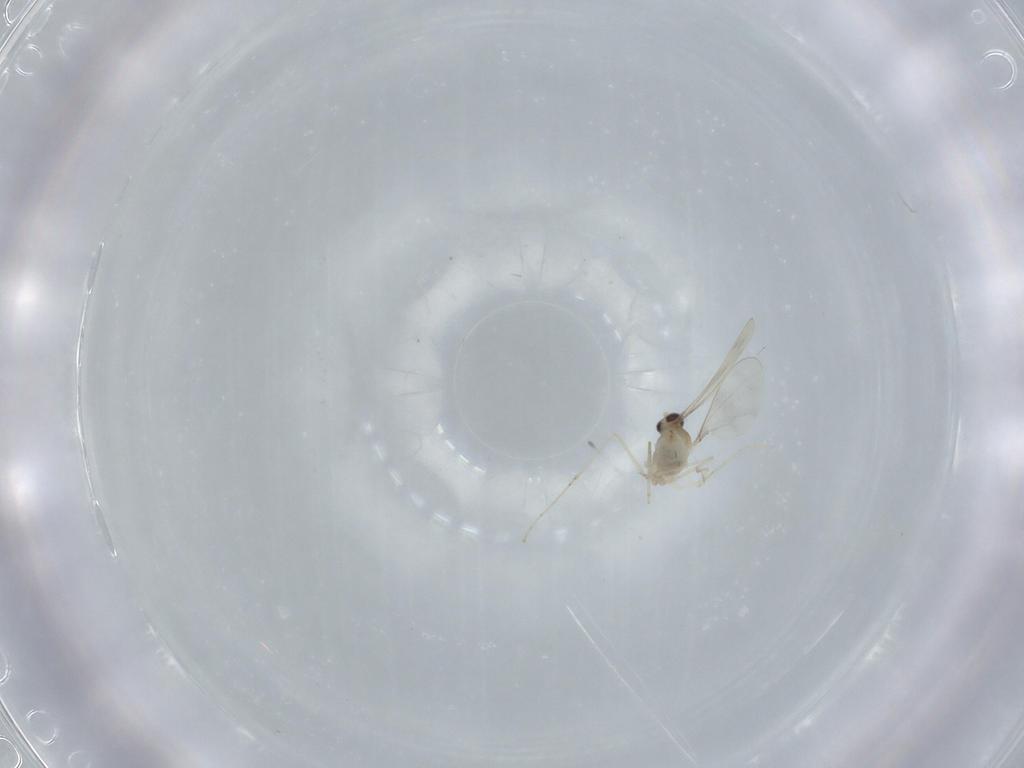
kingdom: Animalia
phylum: Arthropoda
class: Insecta
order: Diptera
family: Cecidomyiidae
